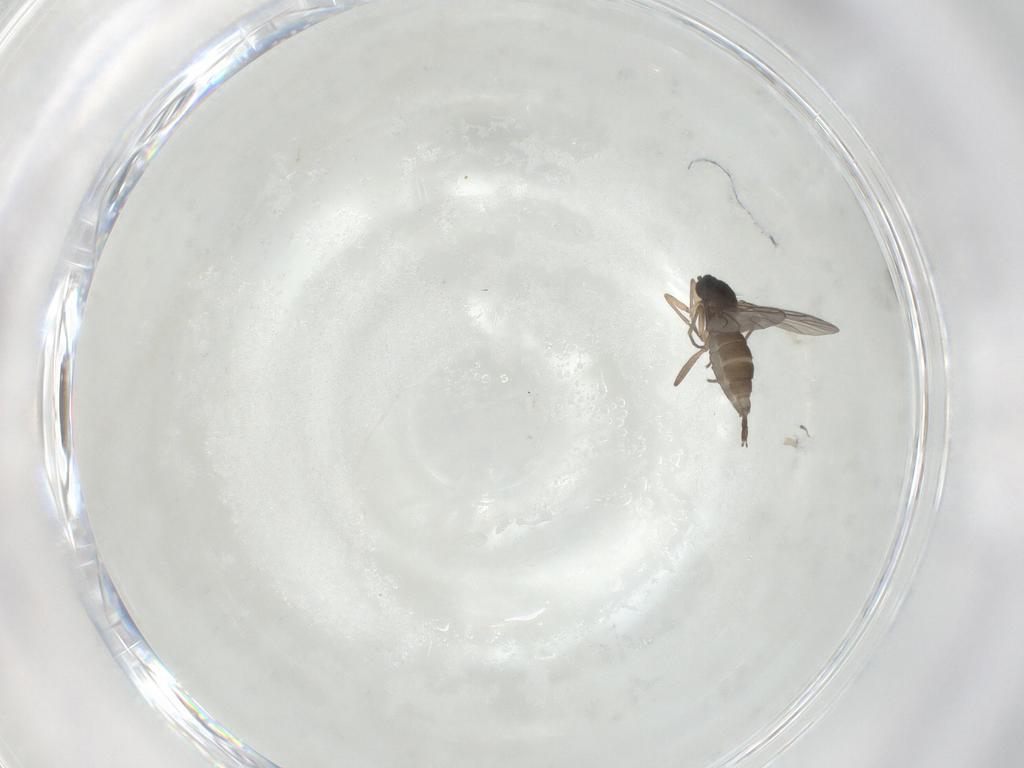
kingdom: Animalia
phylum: Arthropoda
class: Insecta
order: Diptera
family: Sciaridae
